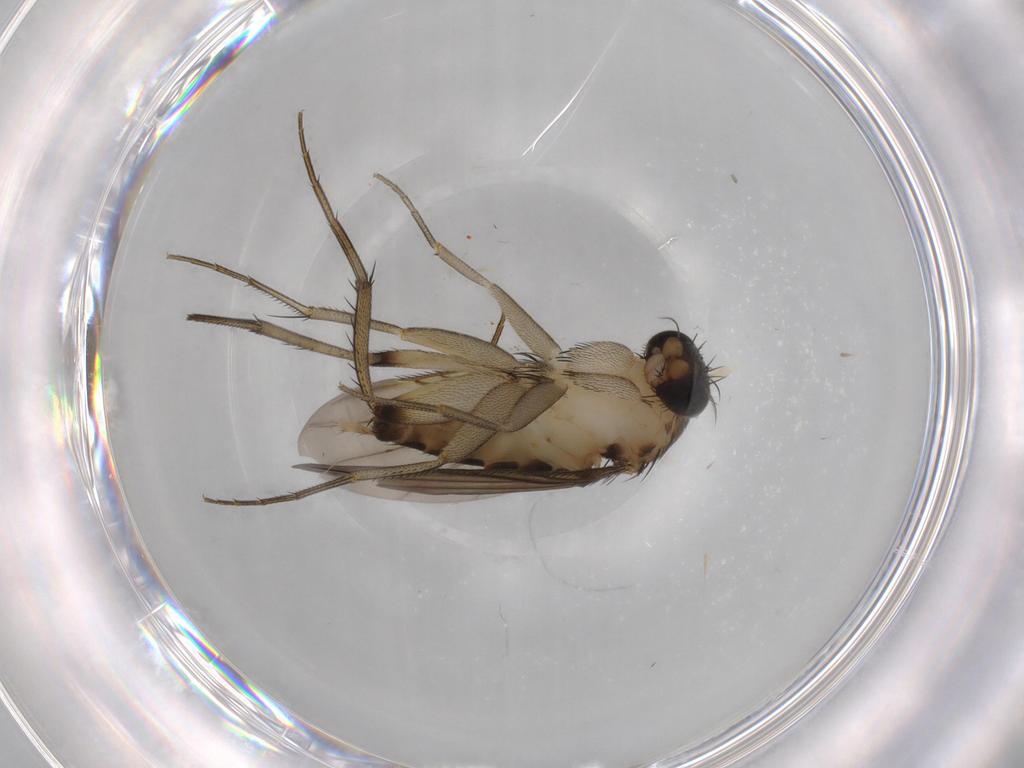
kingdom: Animalia
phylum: Arthropoda
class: Insecta
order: Diptera
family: Phoridae
